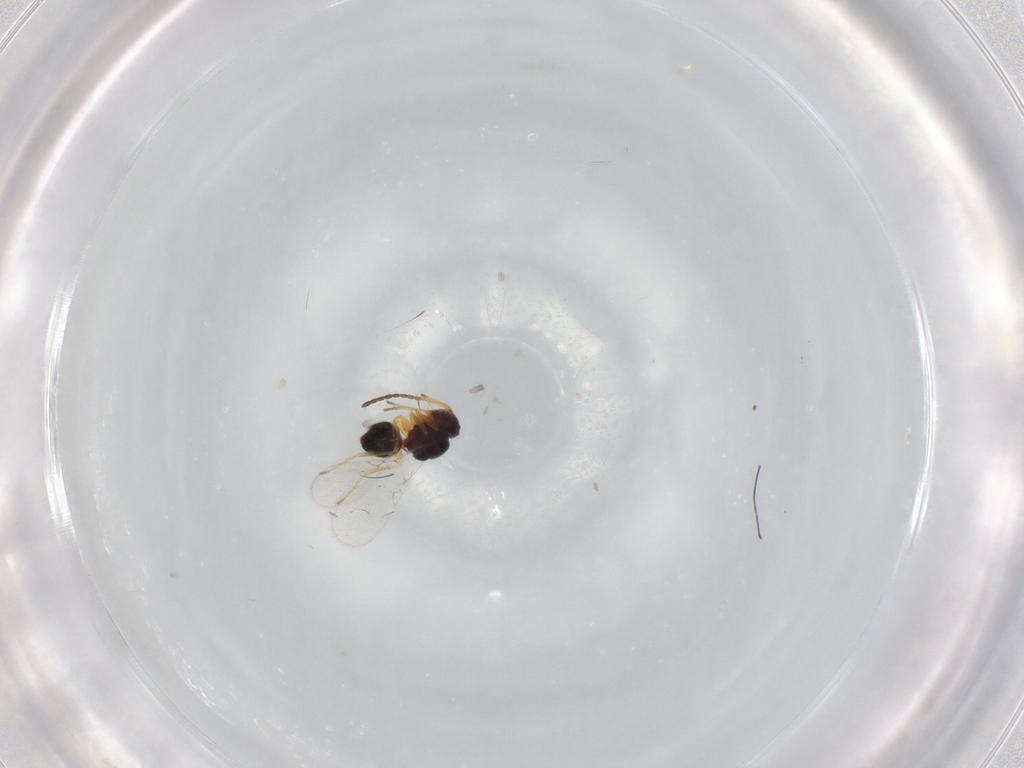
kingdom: Animalia
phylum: Arthropoda
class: Insecta
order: Hymenoptera
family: Figitidae
